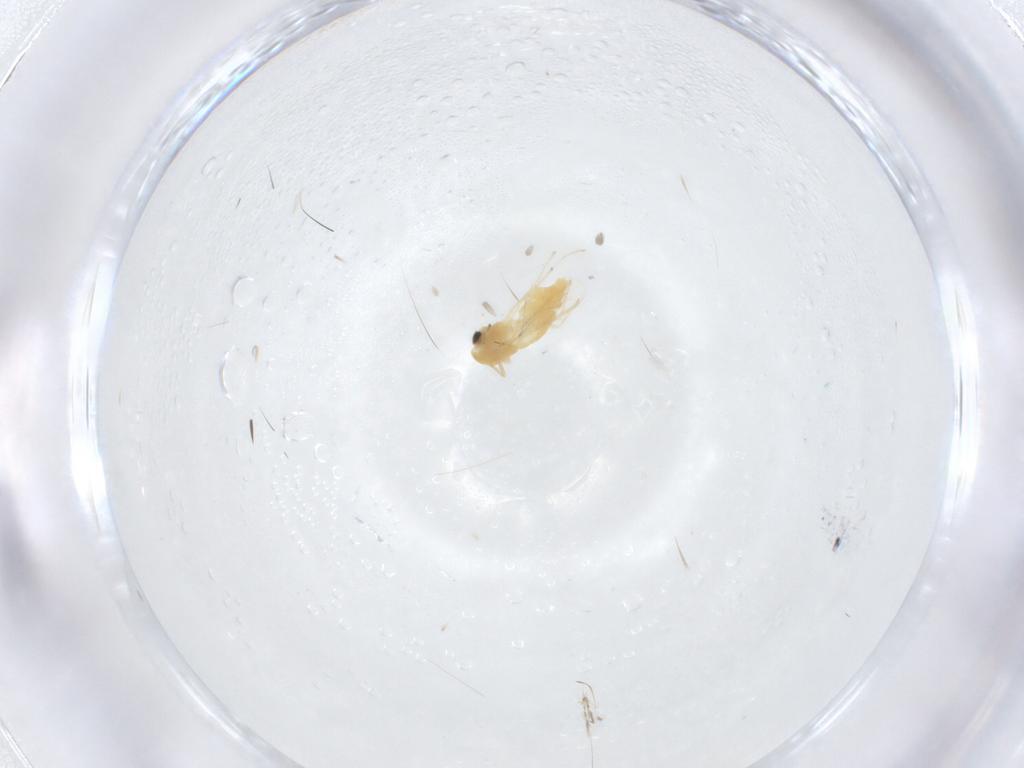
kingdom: Animalia
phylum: Arthropoda
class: Insecta
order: Diptera
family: Chironomidae
